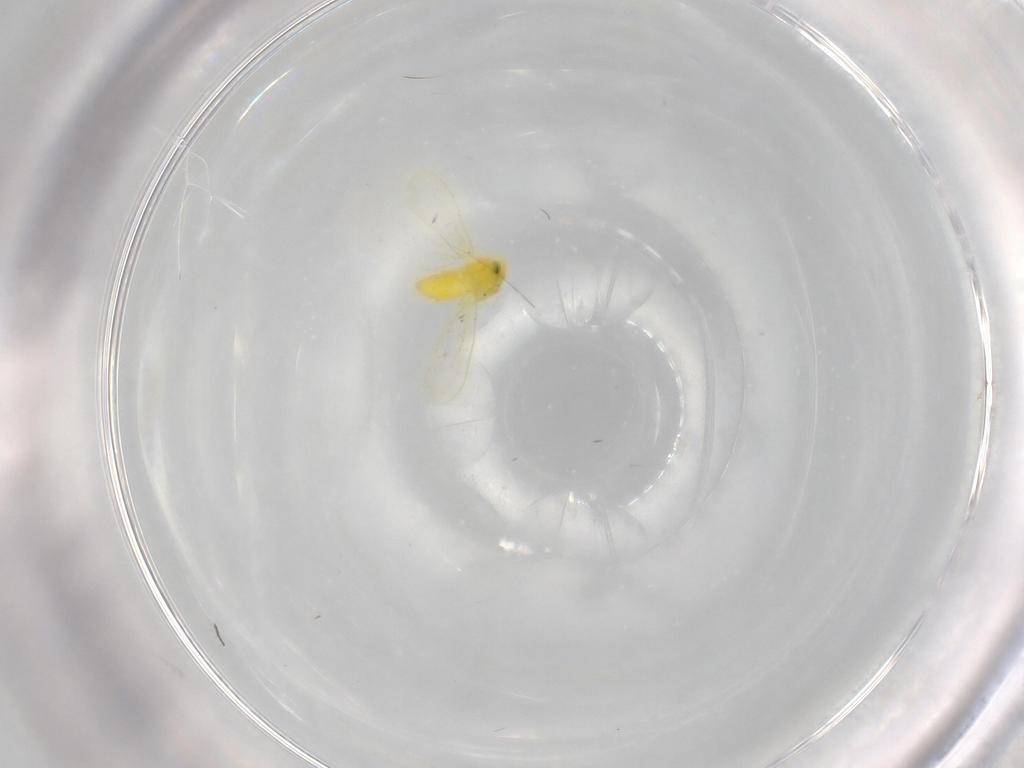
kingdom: Animalia
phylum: Arthropoda
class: Insecta
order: Hemiptera
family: Aleyrodidae
